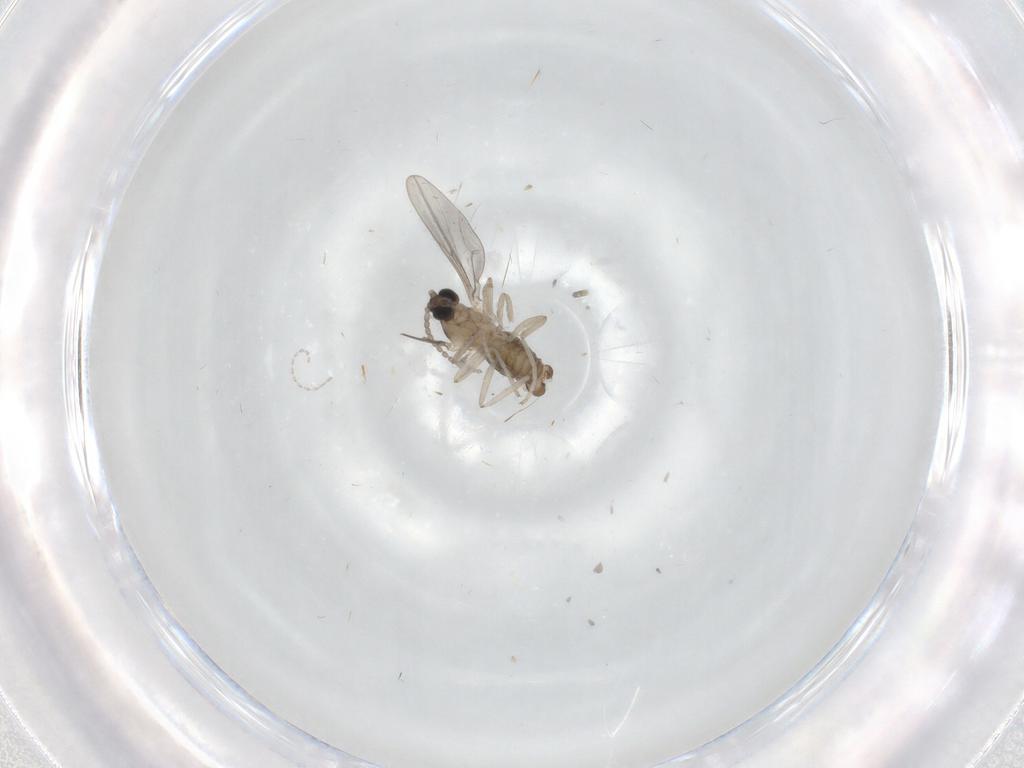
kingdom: Animalia
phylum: Arthropoda
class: Insecta
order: Diptera
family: Cecidomyiidae
